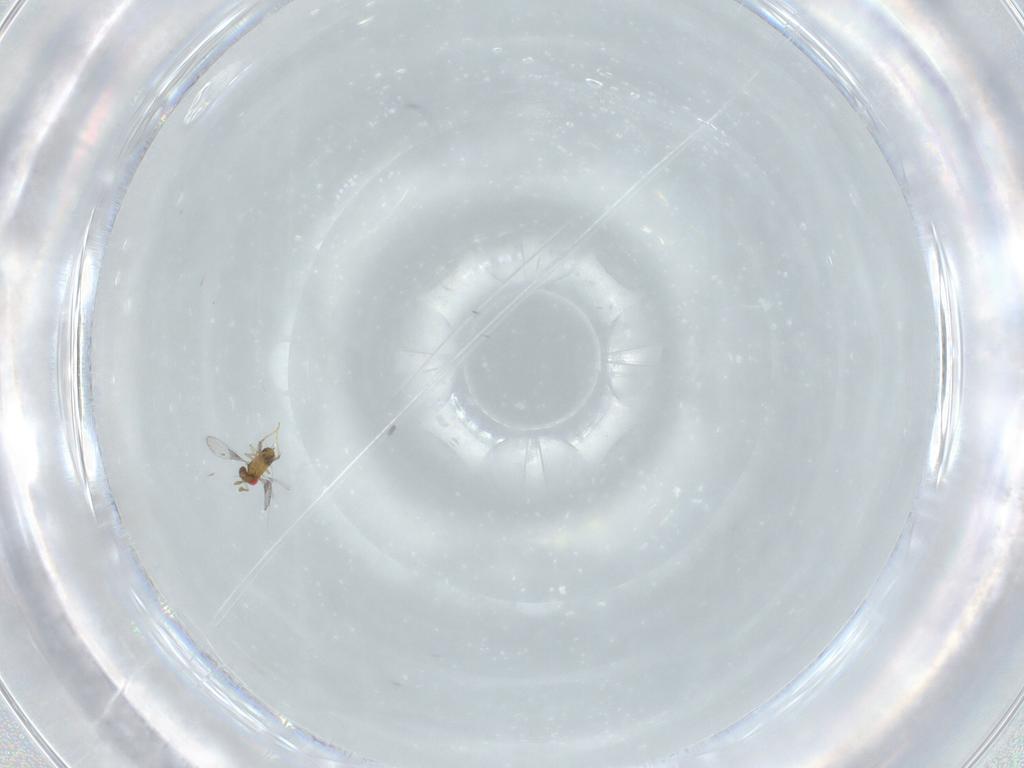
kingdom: Animalia
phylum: Arthropoda
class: Insecta
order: Hymenoptera
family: Trichogrammatidae
